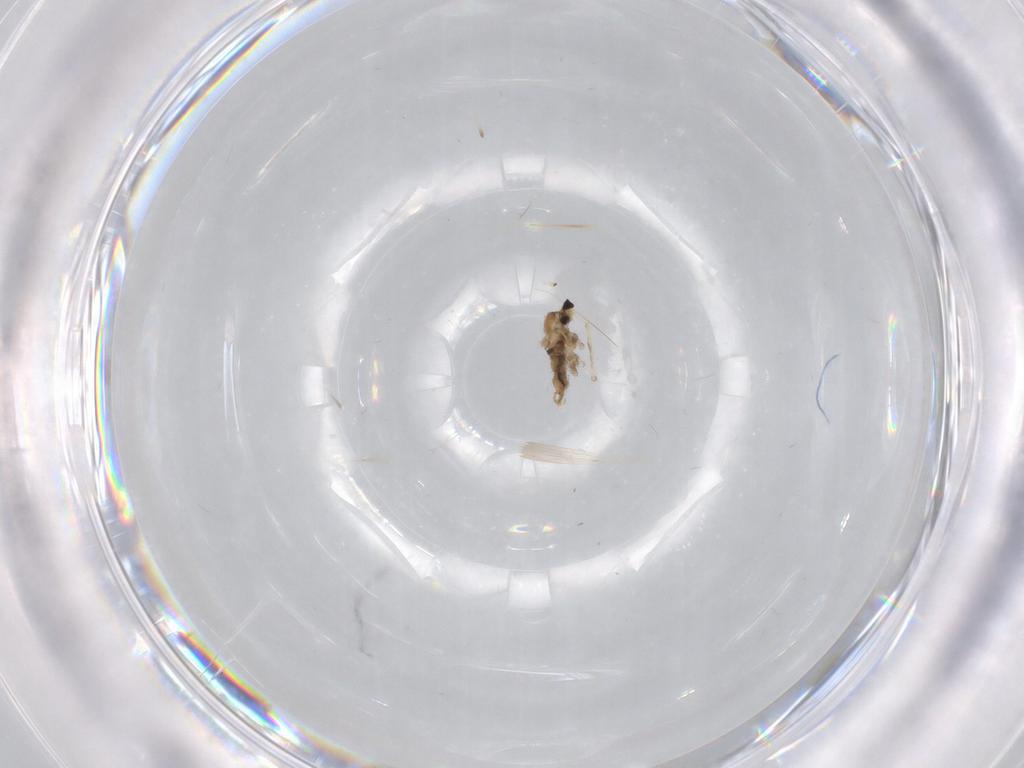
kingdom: Animalia
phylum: Arthropoda
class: Insecta
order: Diptera
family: Cecidomyiidae
